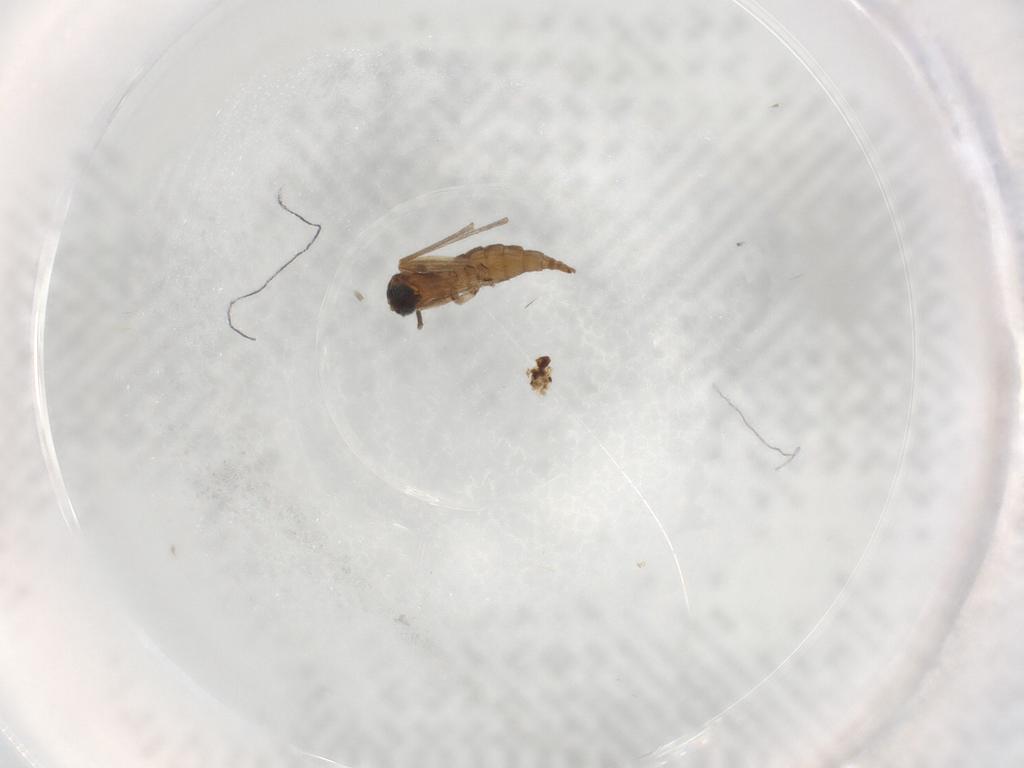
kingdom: Animalia
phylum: Arthropoda
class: Insecta
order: Diptera
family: Sciaridae
